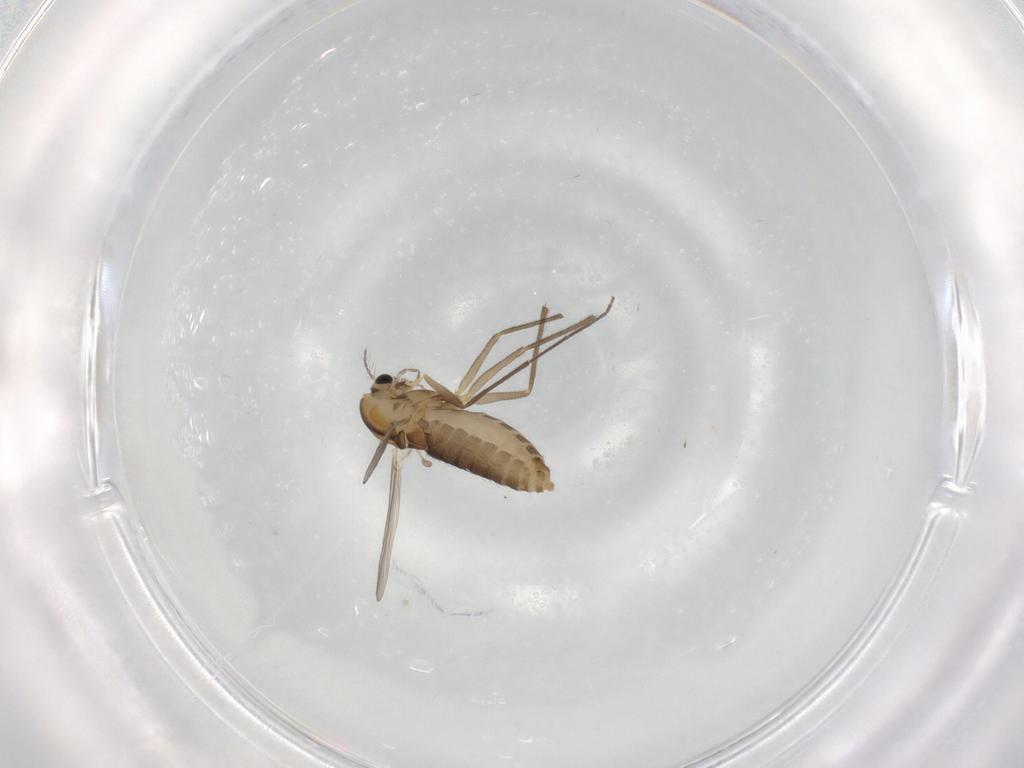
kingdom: Animalia
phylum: Arthropoda
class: Insecta
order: Diptera
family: Chironomidae
